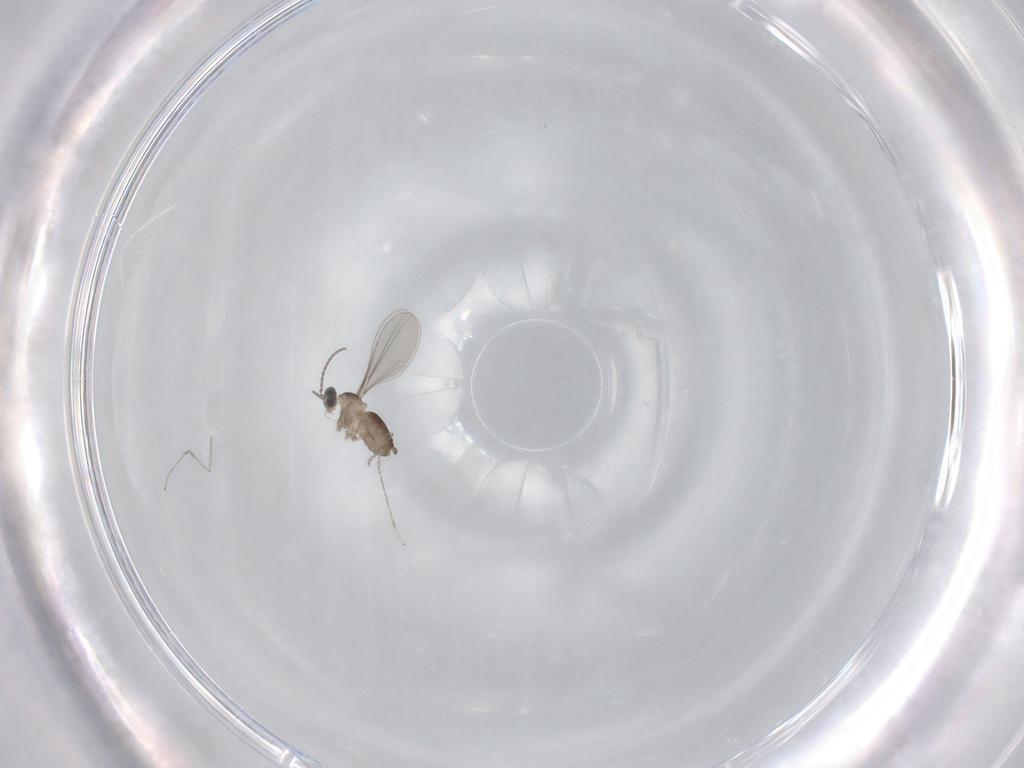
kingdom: Animalia
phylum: Arthropoda
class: Insecta
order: Diptera
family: Cecidomyiidae
